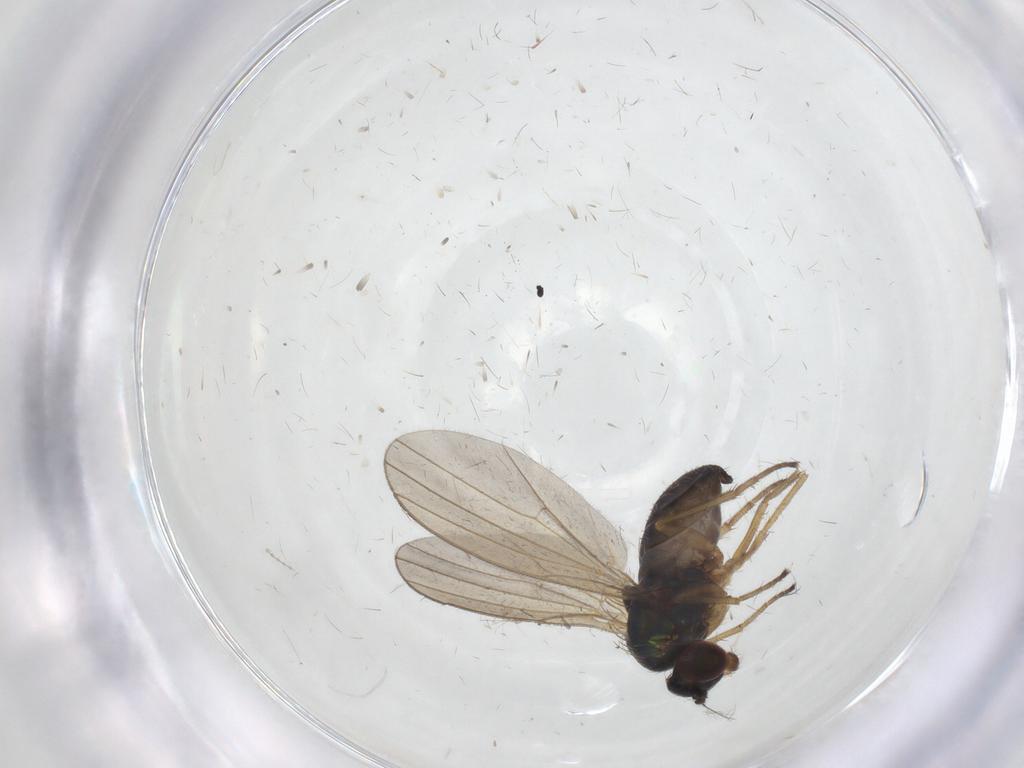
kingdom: Animalia
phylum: Arthropoda
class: Insecta
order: Diptera
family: Dolichopodidae
